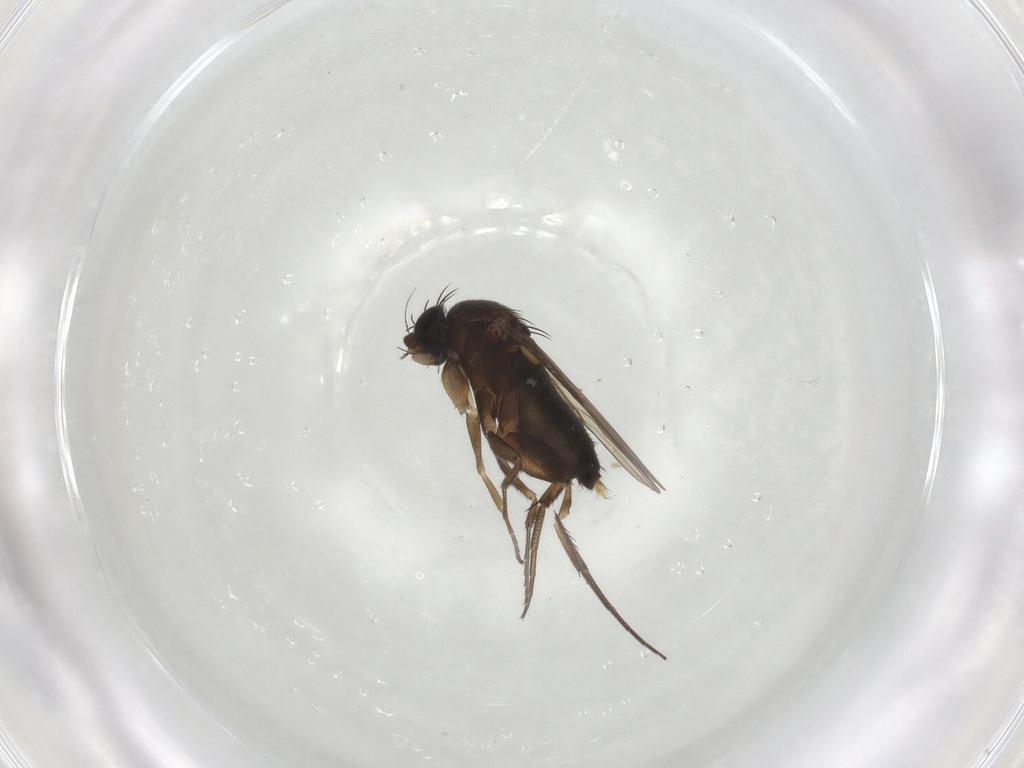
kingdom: Animalia
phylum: Arthropoda
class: Insecta
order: Diptera
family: Phoridae
